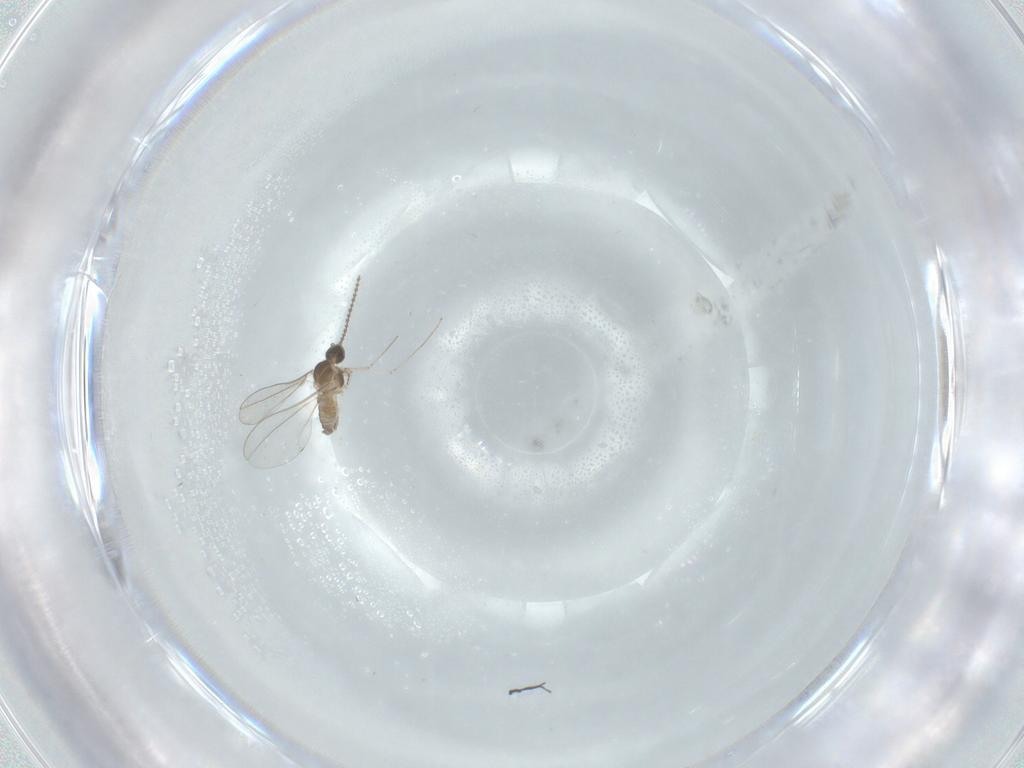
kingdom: Animalia
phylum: Arthropoda
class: Insecta
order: Diptera
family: Cecidomyiidae
